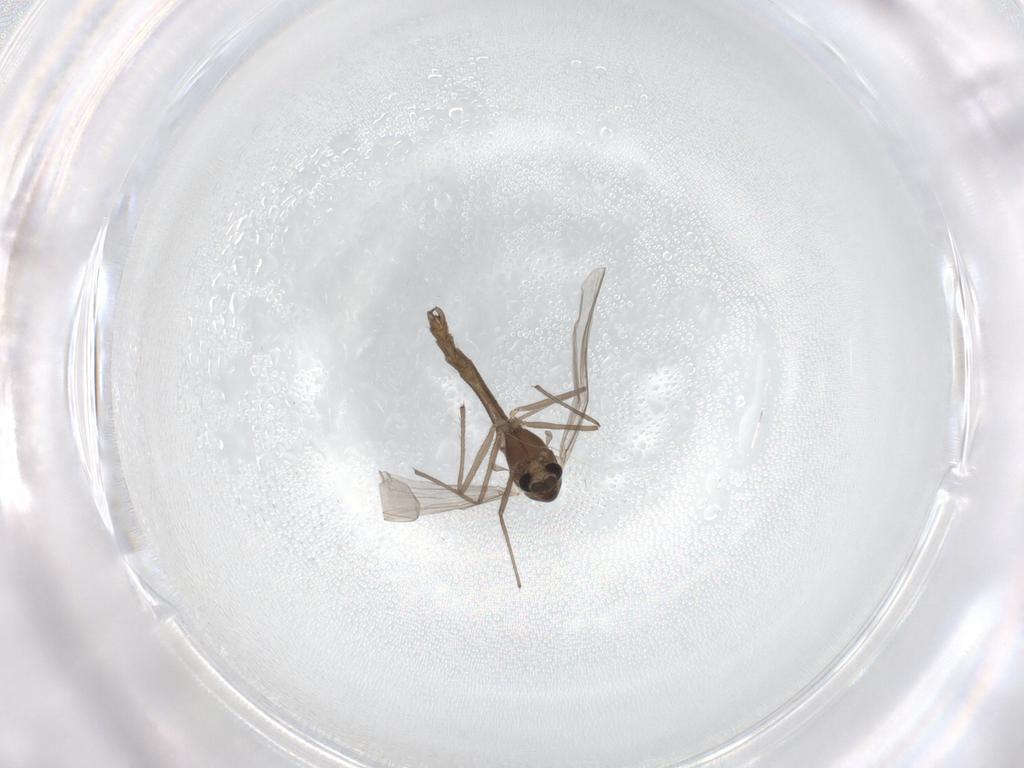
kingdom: Animalia
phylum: Arthropoda
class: Insecta
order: Diptera
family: Chironomidae
